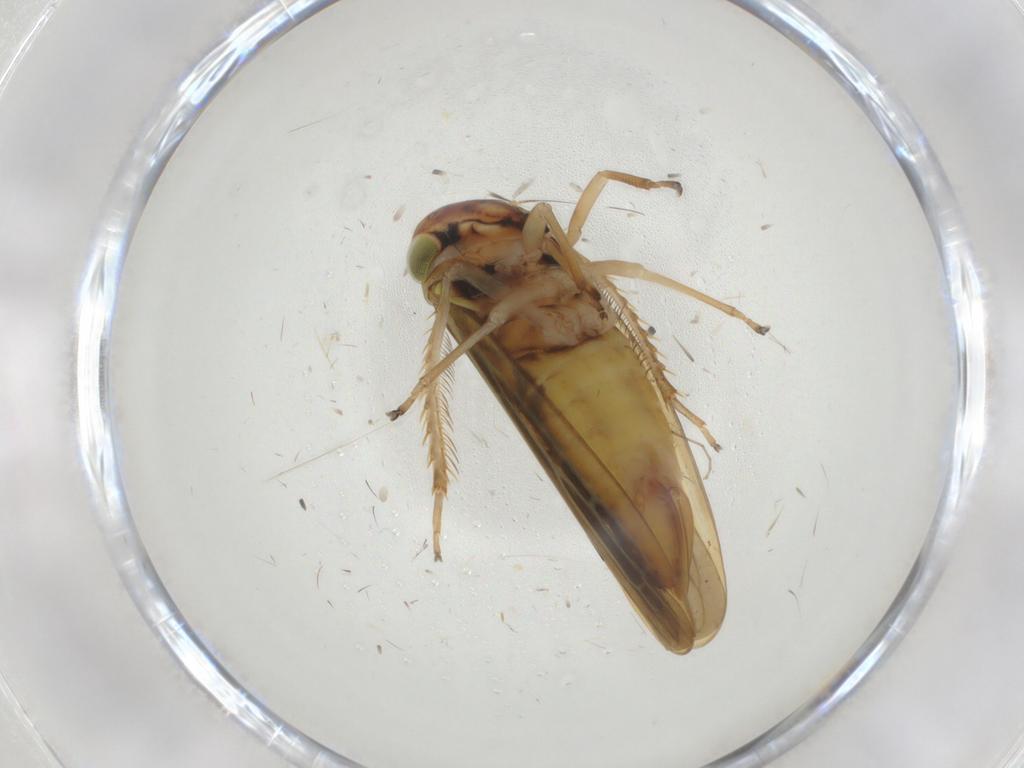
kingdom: Animalia
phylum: Arthropoda
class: Insecta
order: Hemiptera
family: Cicadellidae
